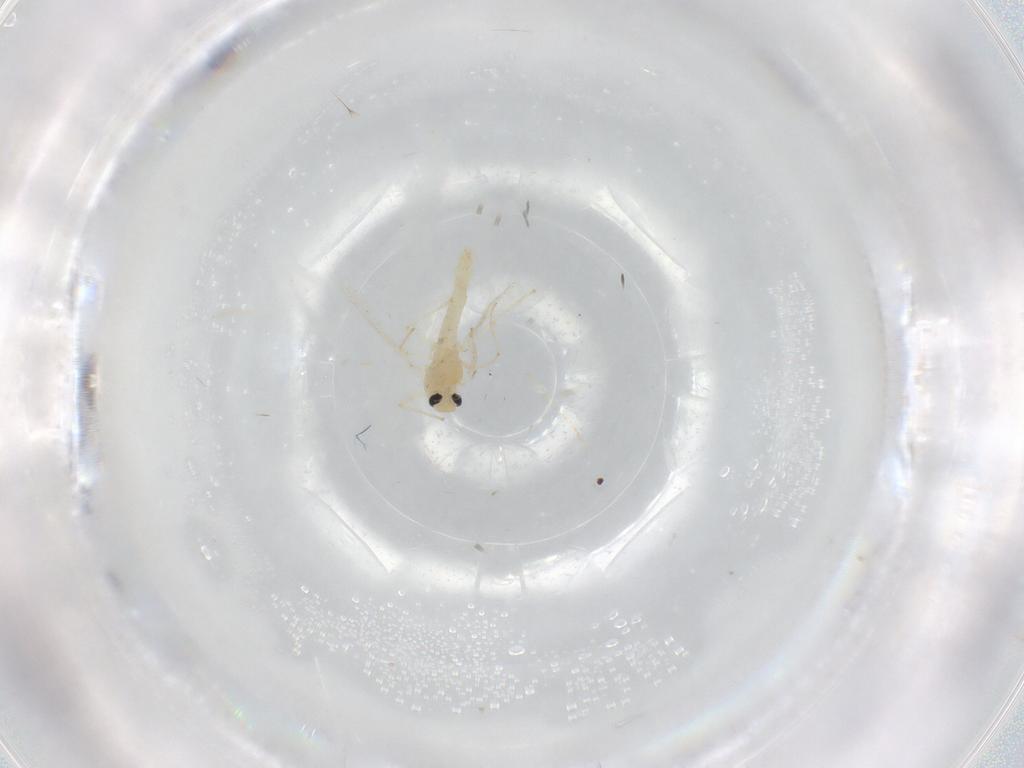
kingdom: Animalia
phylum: Arthropoda
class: Insecta
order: Diptera
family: Chironomidae
